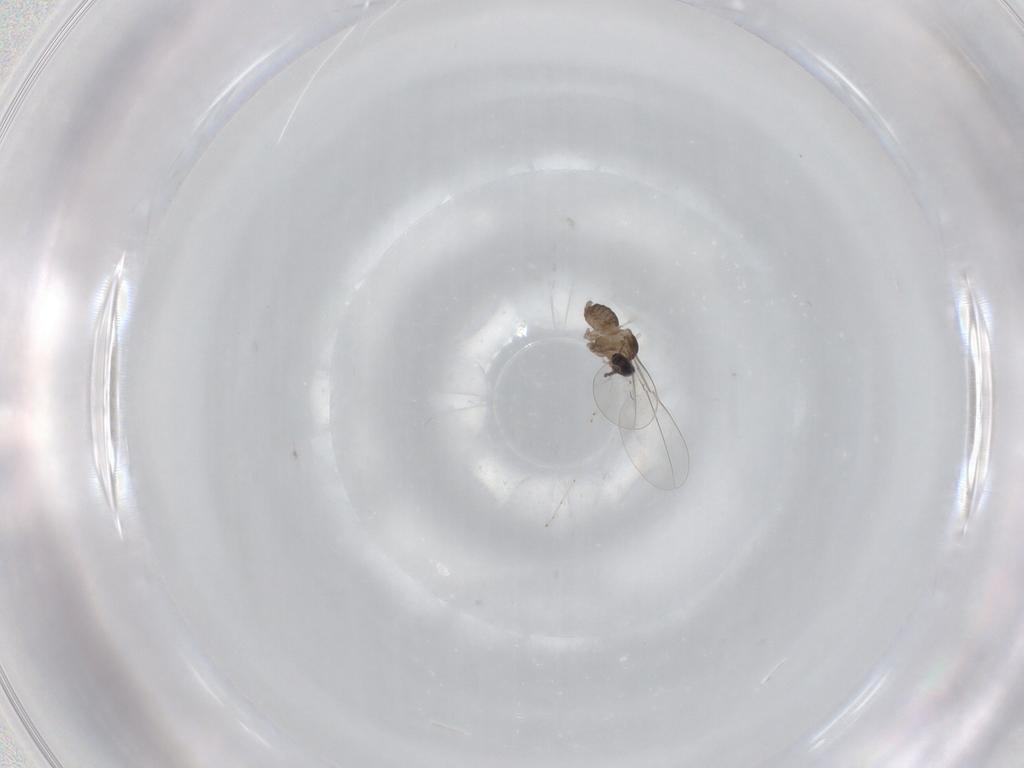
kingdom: Animalia
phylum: Arthropoda
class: Insecta
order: Diptera
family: Cecidomyiidae
